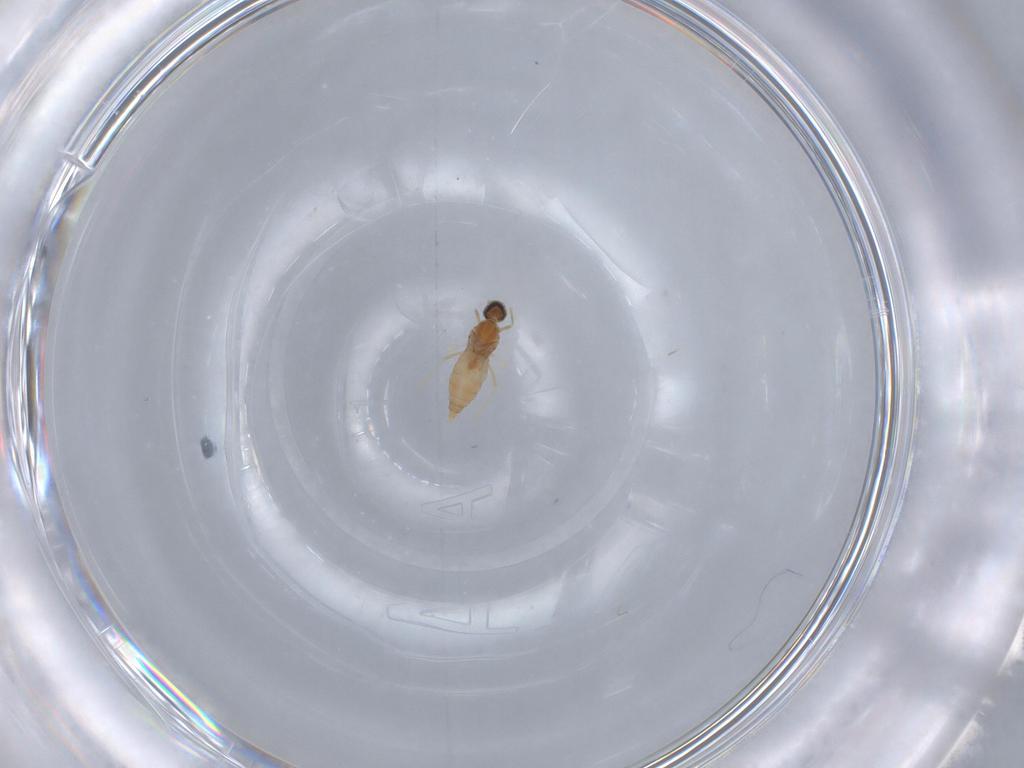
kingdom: Animalia
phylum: Arthropoda
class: Insecta
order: Diptera
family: Cecidomyiidae
